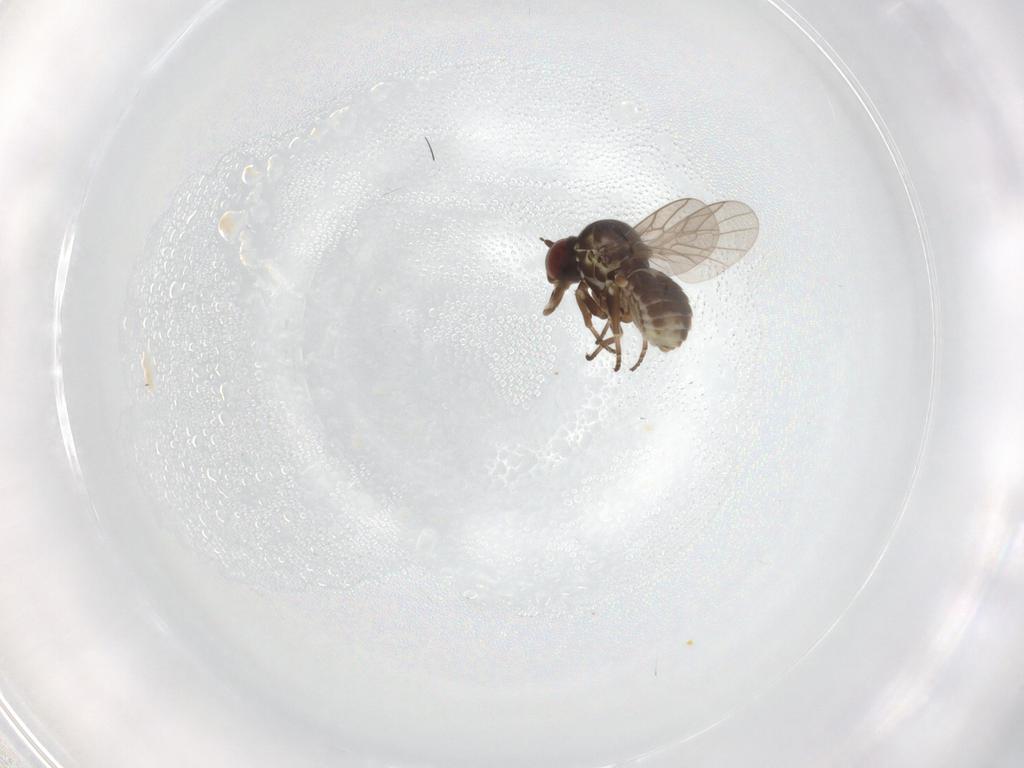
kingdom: Animalia
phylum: Arthropoda
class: Insecta
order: Diptera
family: Bombyliidae
